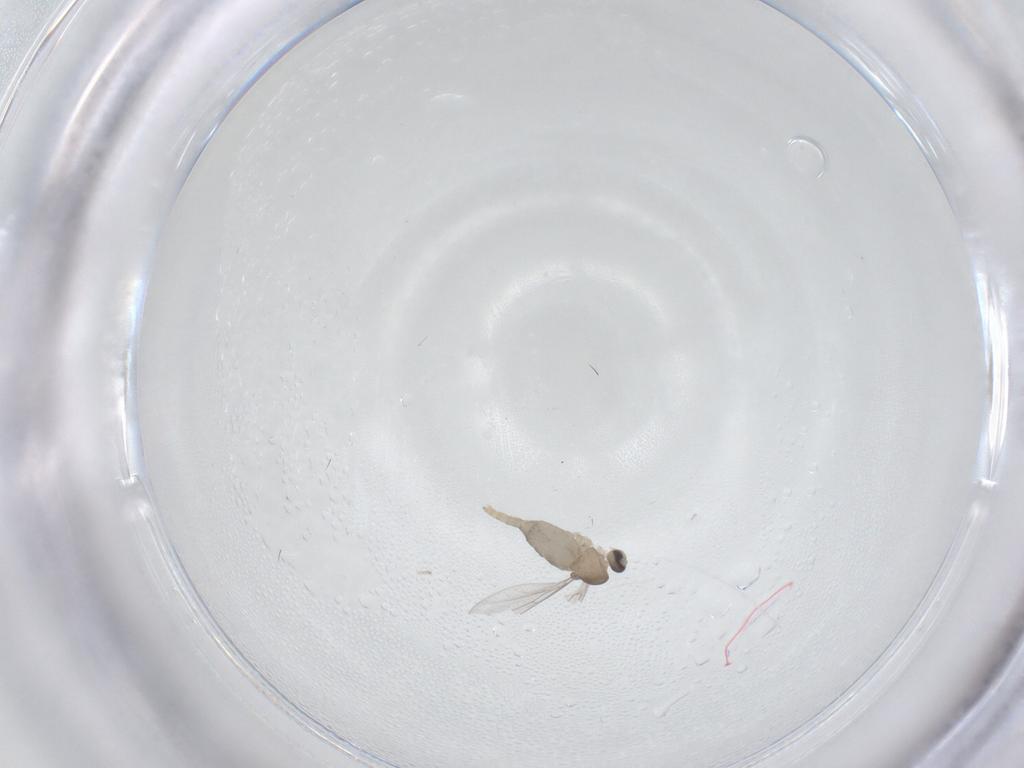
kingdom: Animalia
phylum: Arthropoda
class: Insecta
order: Diptera
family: Cecidomyiidae
